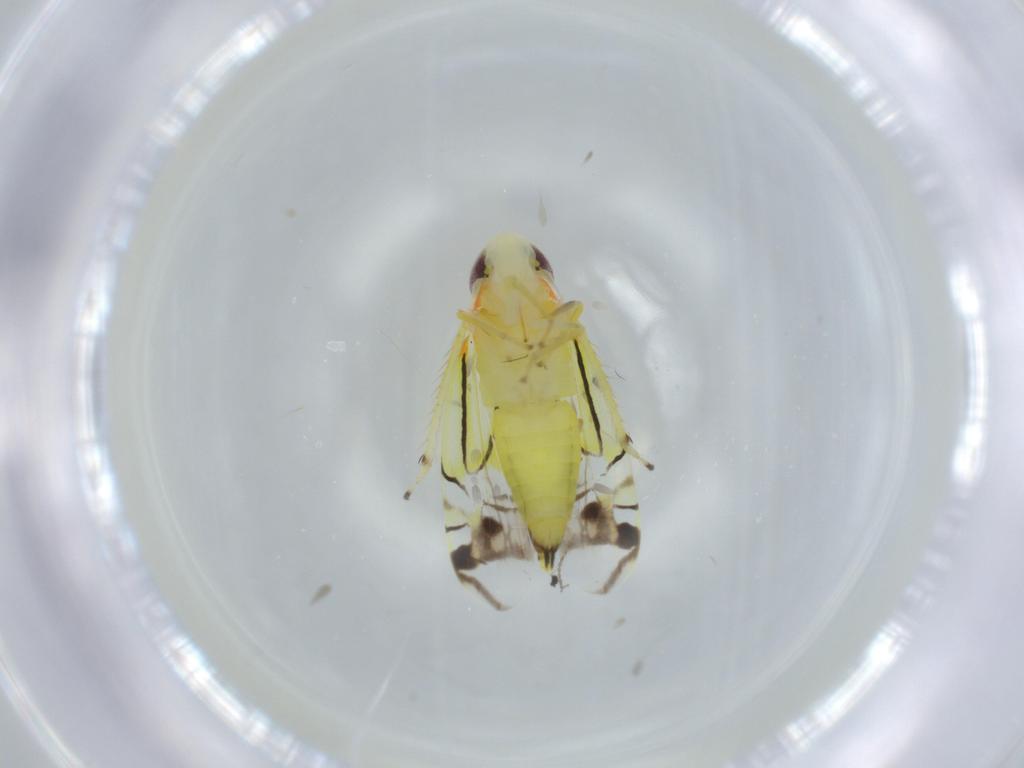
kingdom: Animalia
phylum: Arthropoda
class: Insecta
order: Hemiptera
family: Cicadellidae
